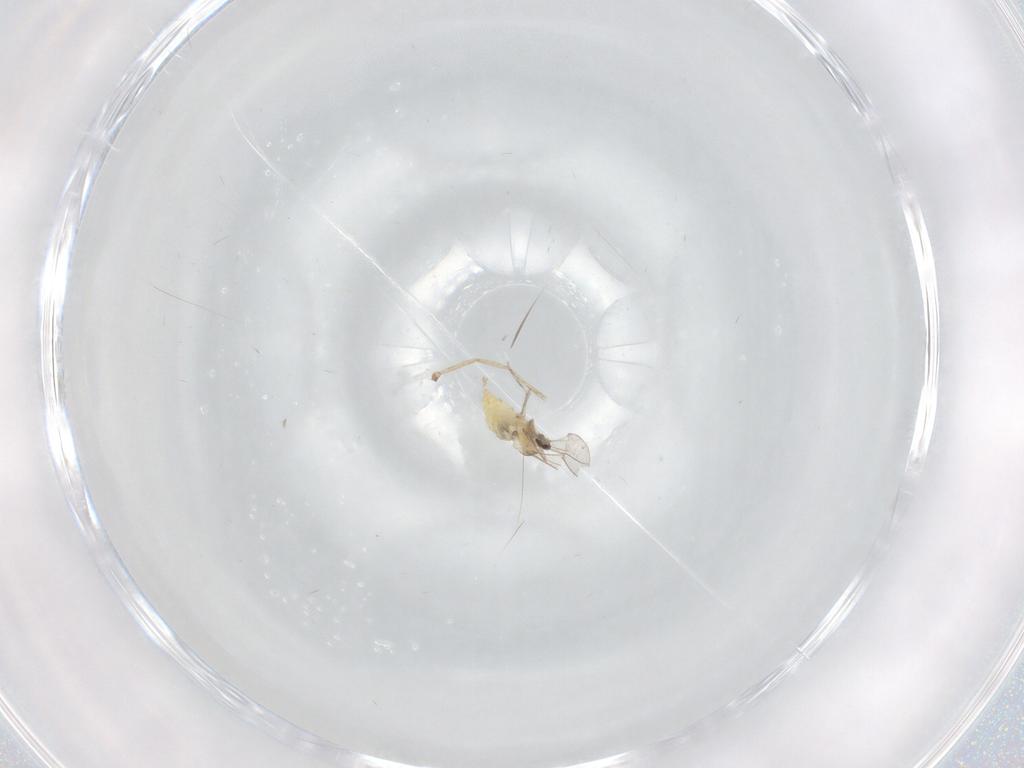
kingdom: Animalia
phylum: Arthropoda
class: Insecta
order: Diptera
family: Cecidomyiidae
